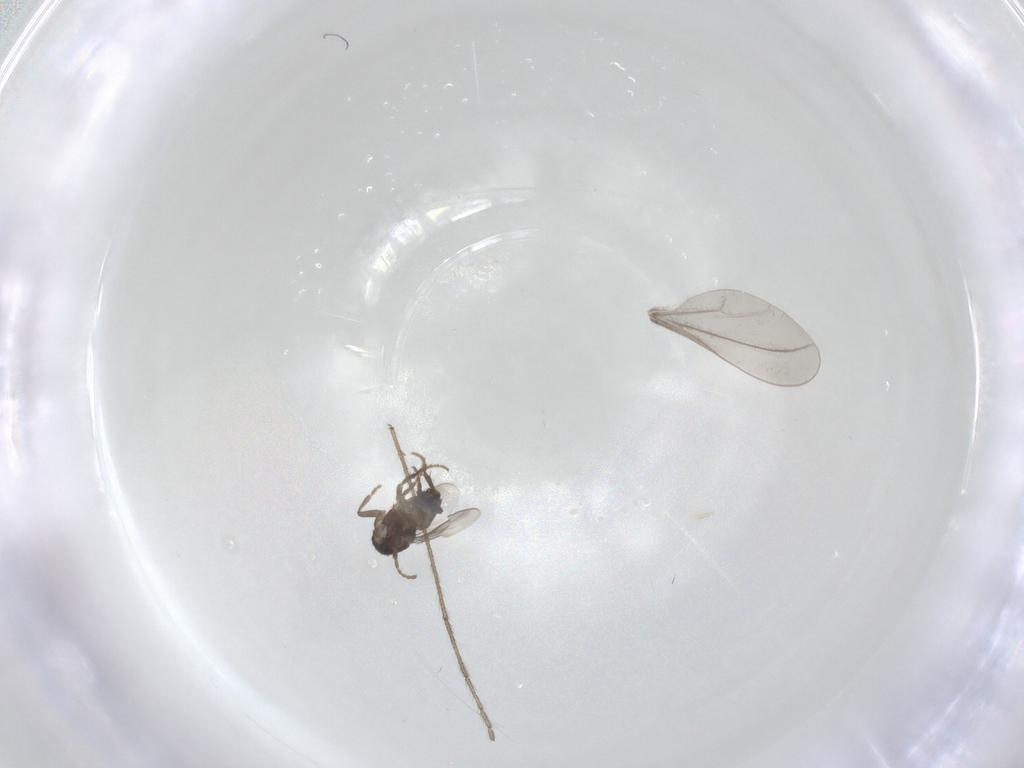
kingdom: Animalia
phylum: Arthropoda
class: Insecta
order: Diptera
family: Limoniidae
